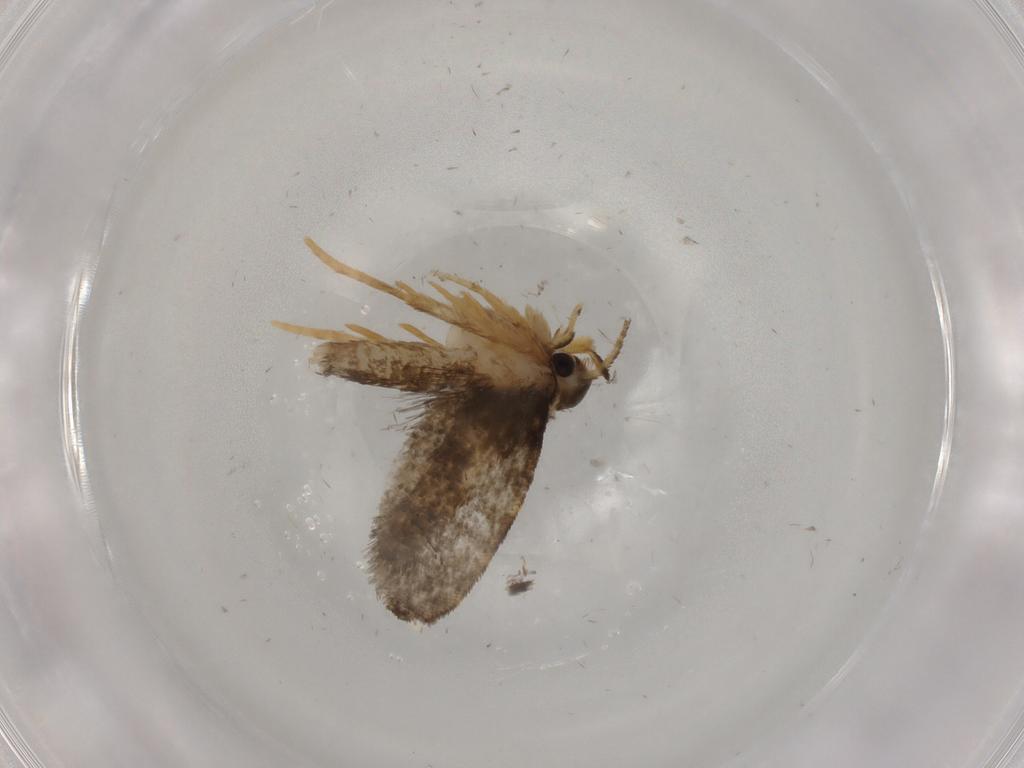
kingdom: Animalia
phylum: Arthropoda
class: Insecta
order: Lepidoptera
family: Psychidae
